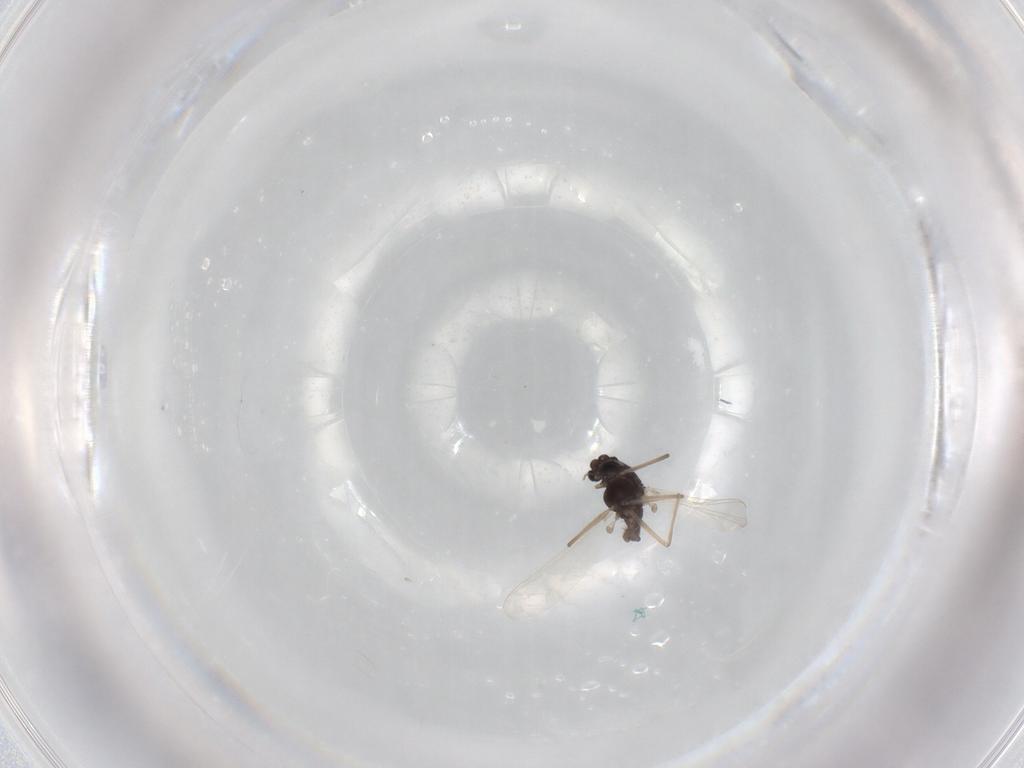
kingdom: Animalia
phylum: Arthropoda
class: Insecta
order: Diptera
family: Chironomidae
